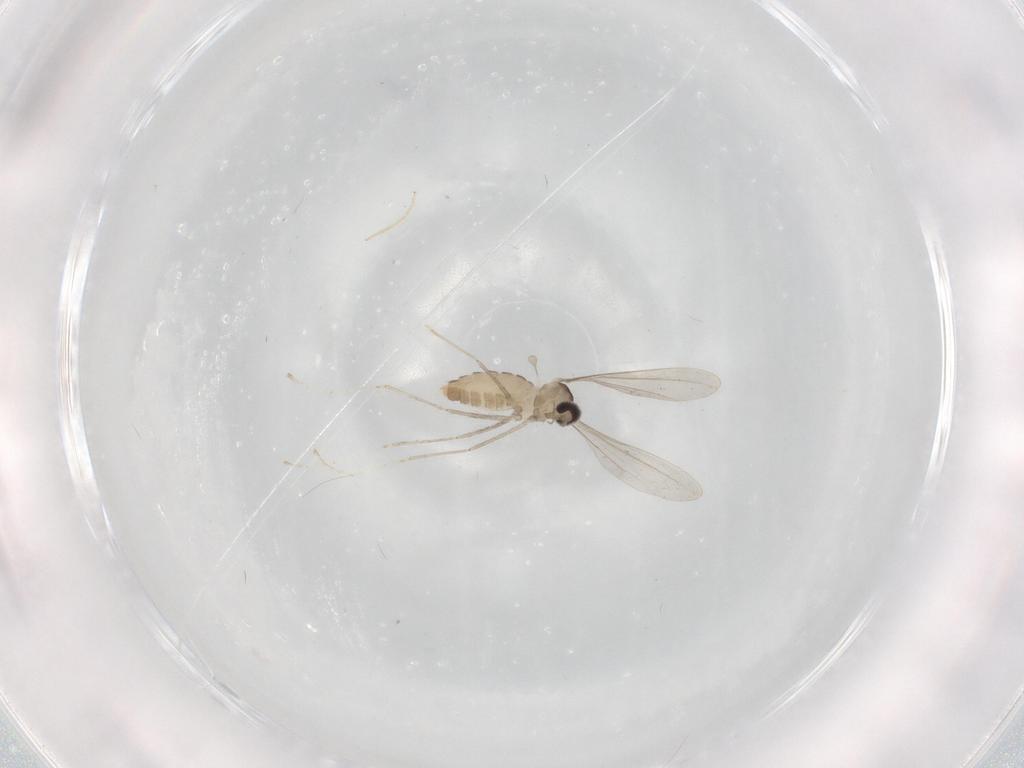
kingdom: Animalia
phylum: Arthropoda
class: Insecta
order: Diptera
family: Chironomidae
